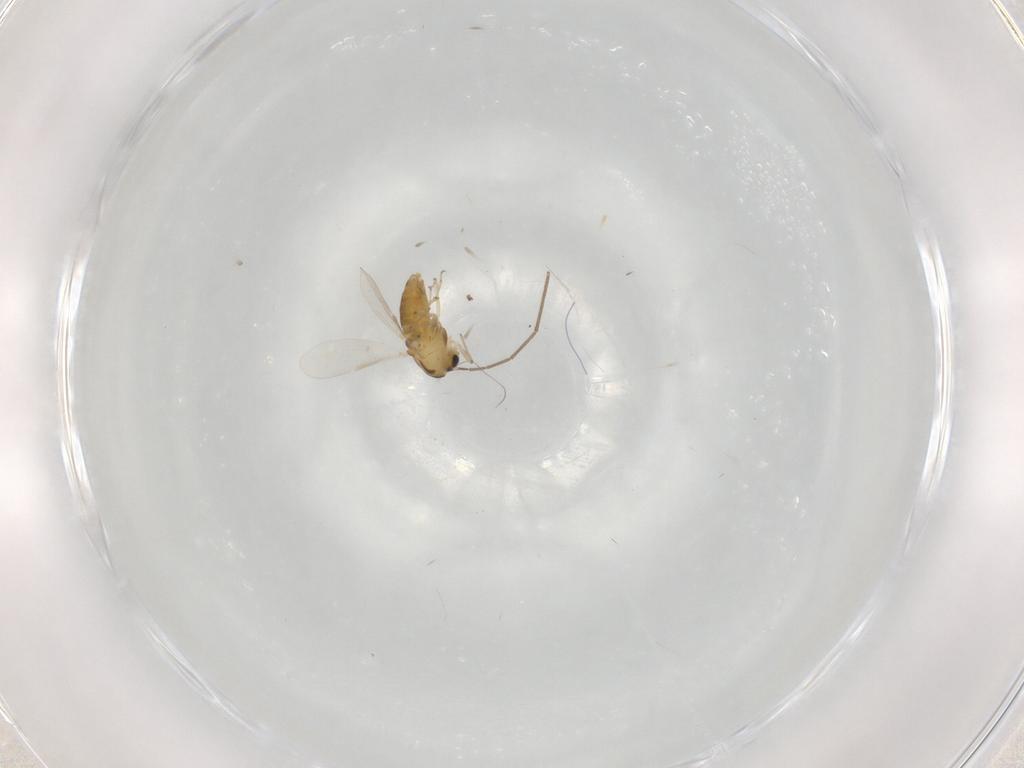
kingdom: Animalia
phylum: Arthropoda
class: Insecta
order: Diptera
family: Chironomidae
